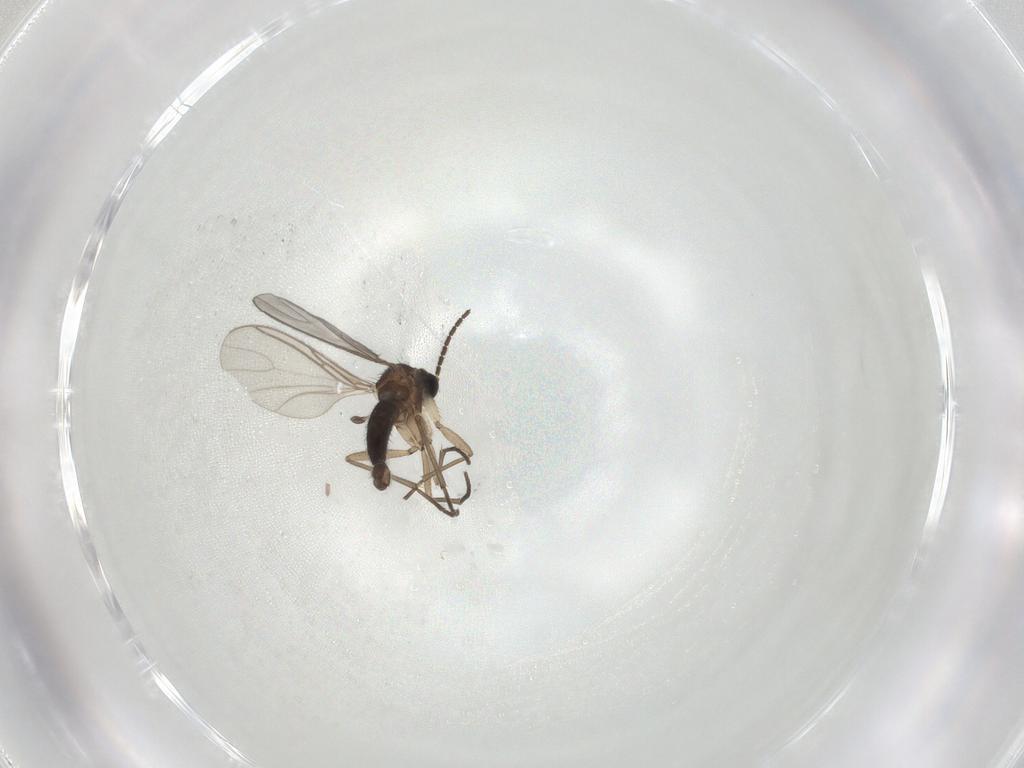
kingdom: Animalia
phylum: Arthropoda
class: Insecta
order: Diptera
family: Sciaridae
